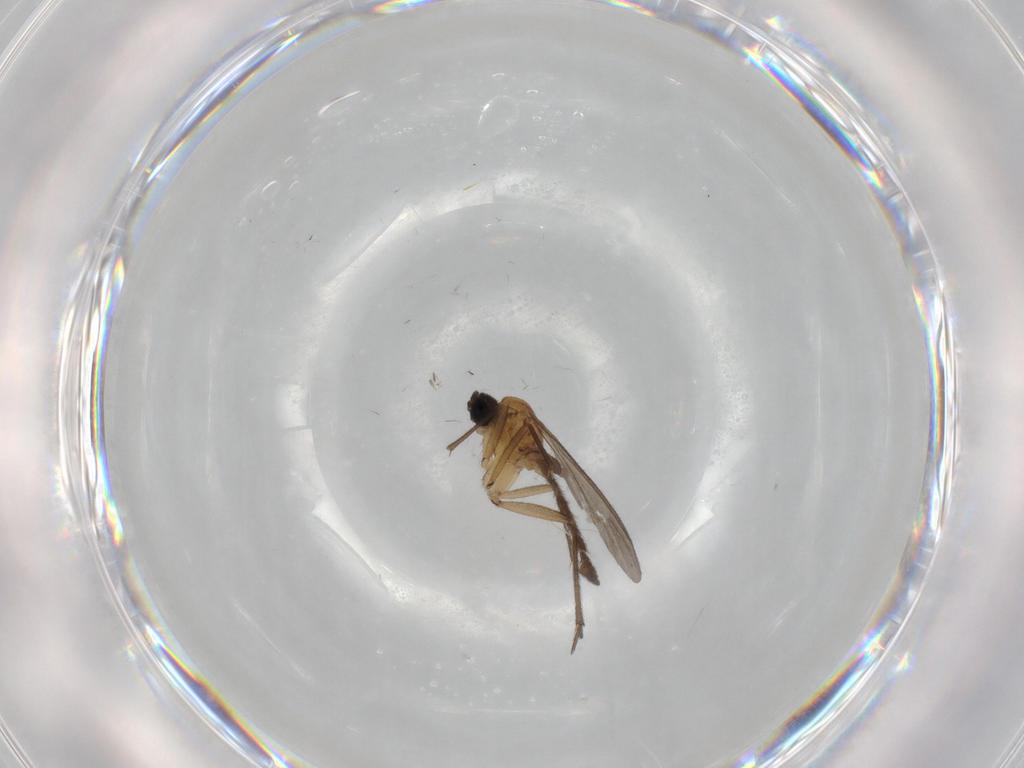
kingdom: Animalia
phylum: Arthropoda
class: Insecta
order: Diptera
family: Sciaridae
